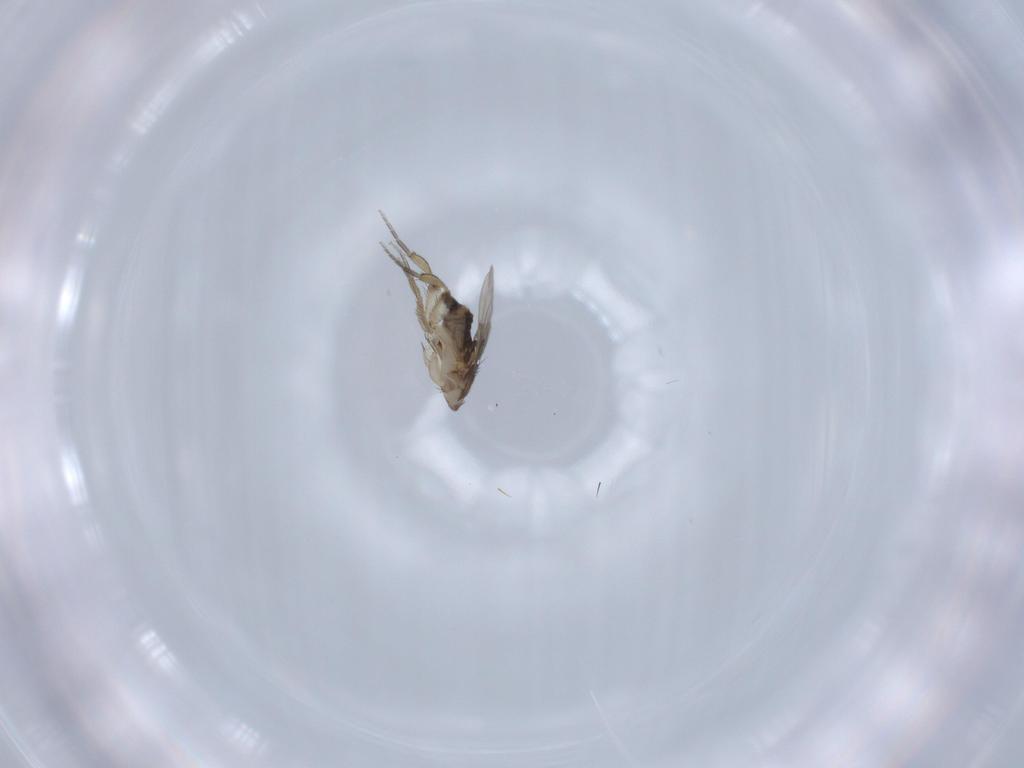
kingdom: Animalia
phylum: Arthropoda
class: Insecta
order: Diptera
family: Phoridae
